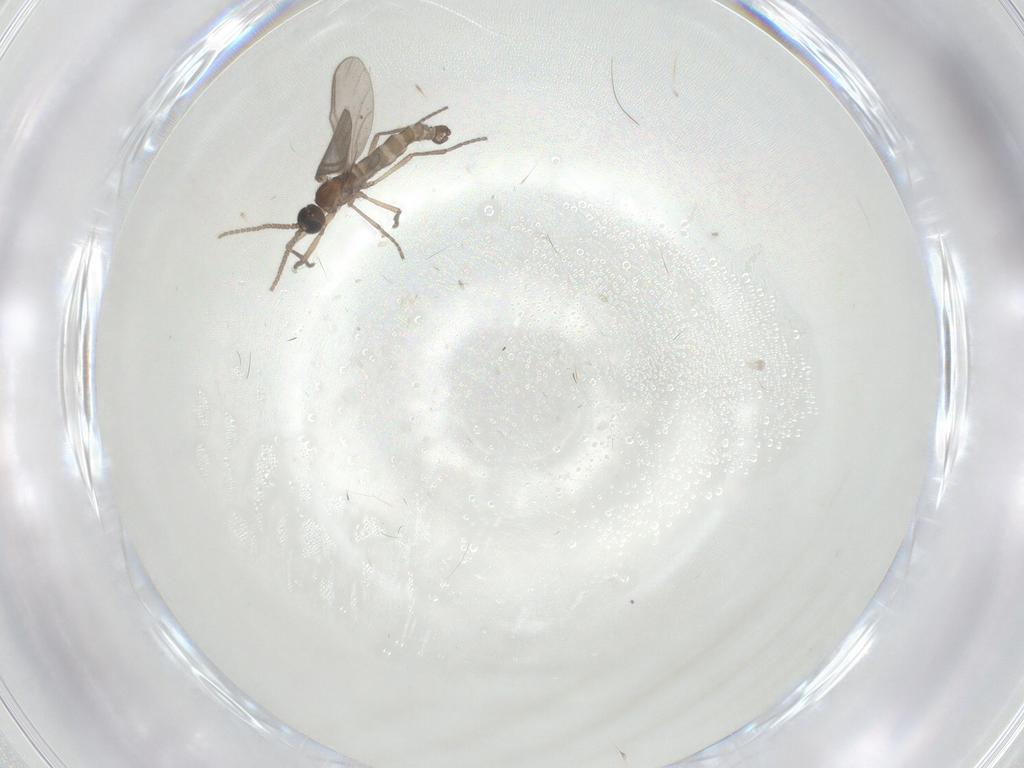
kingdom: Animalia
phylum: Arthropoda
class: Insecta
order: Diptera
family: Sciaridae
